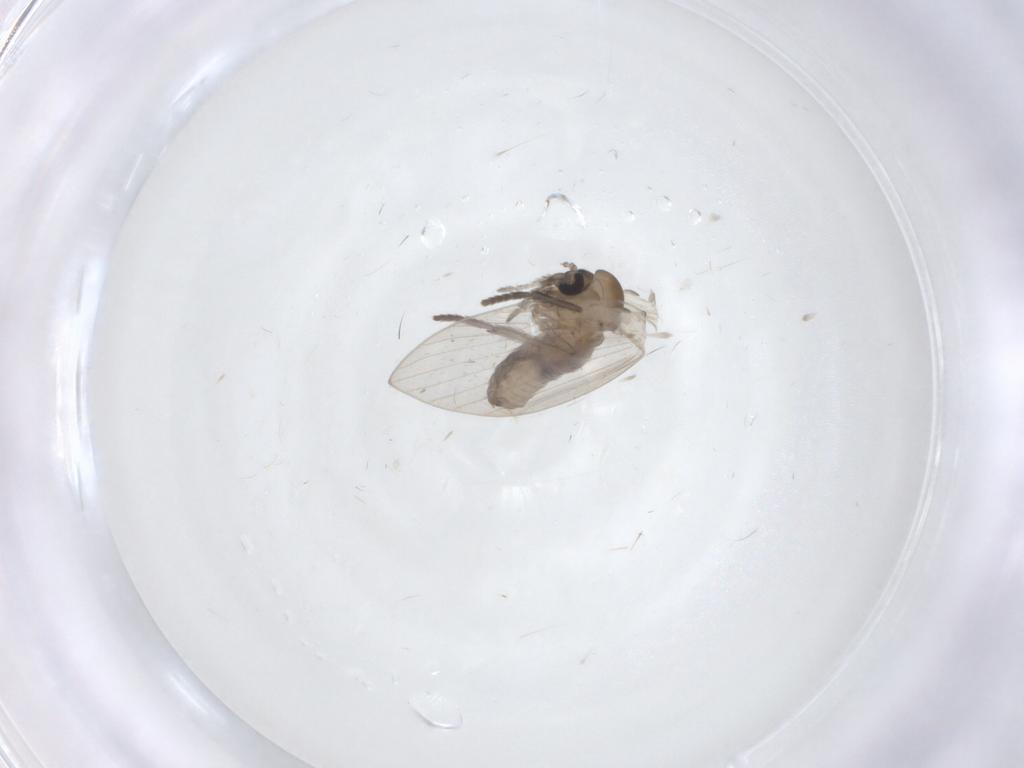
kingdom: Animalia
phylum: Arthropoda
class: Insecta
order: Diptera
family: Psychodidae
